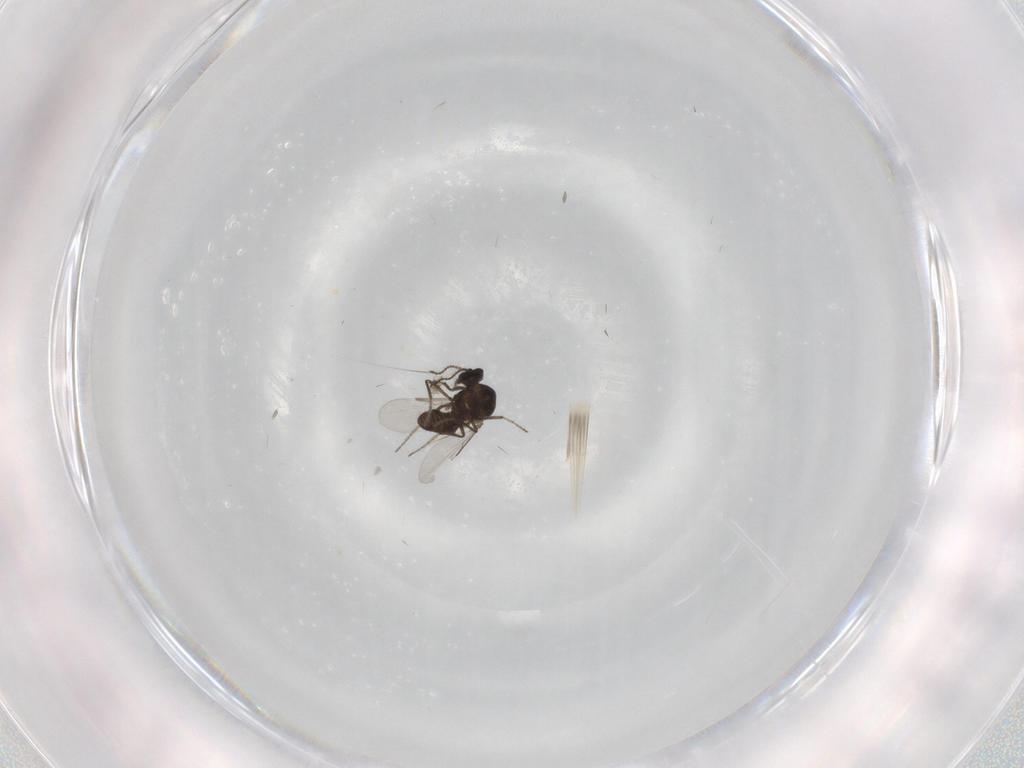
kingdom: Animalia
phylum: Arthropoda
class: Insecta
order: Diptera
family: Ceratopogonidae
